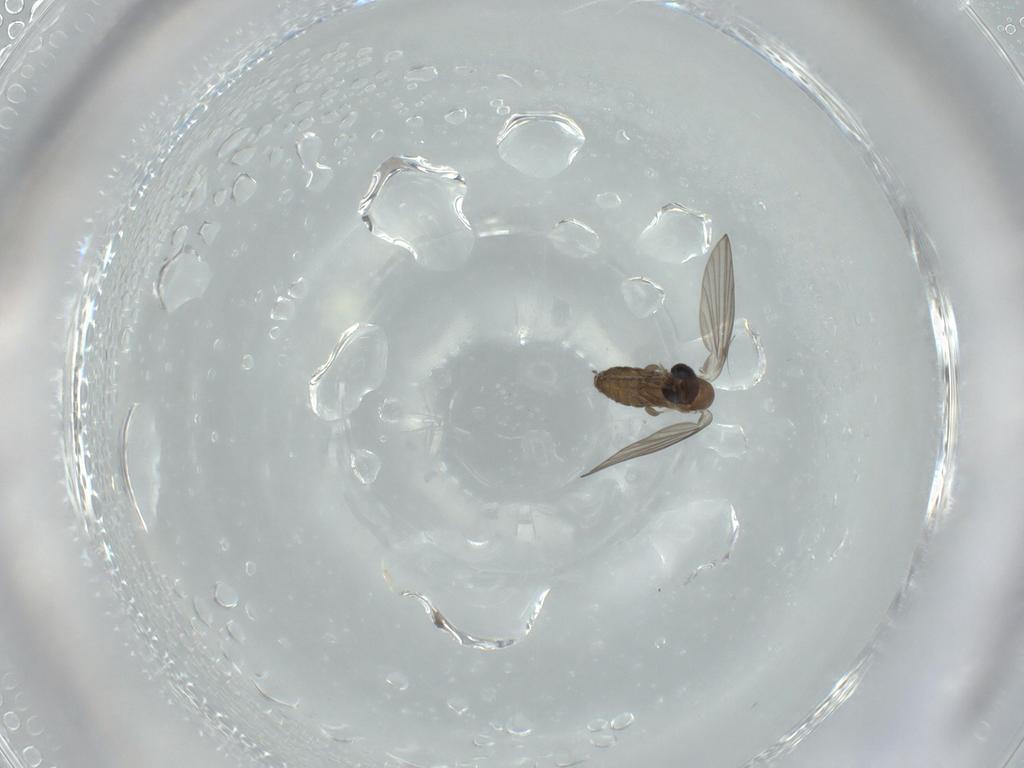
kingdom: Animalia
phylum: Arthropoda
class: Insecta
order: Diptera
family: Psychodidae
